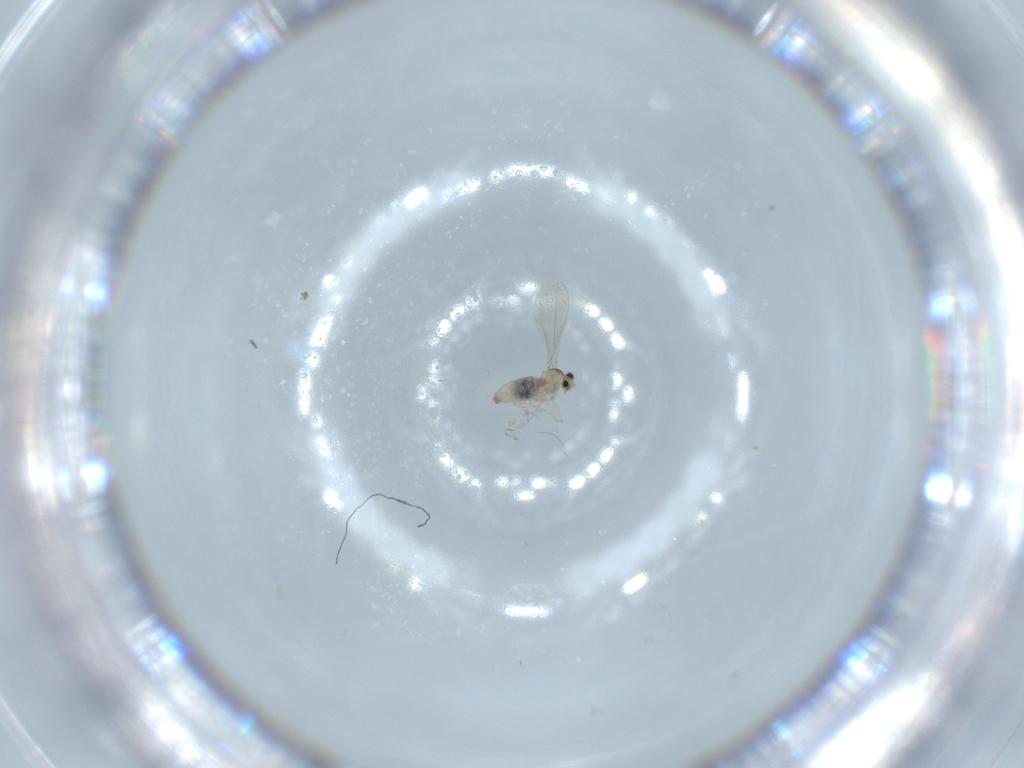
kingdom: Animalia
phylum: Arthropoda
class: Insecta
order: Diptera
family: Cecidomyiidae
